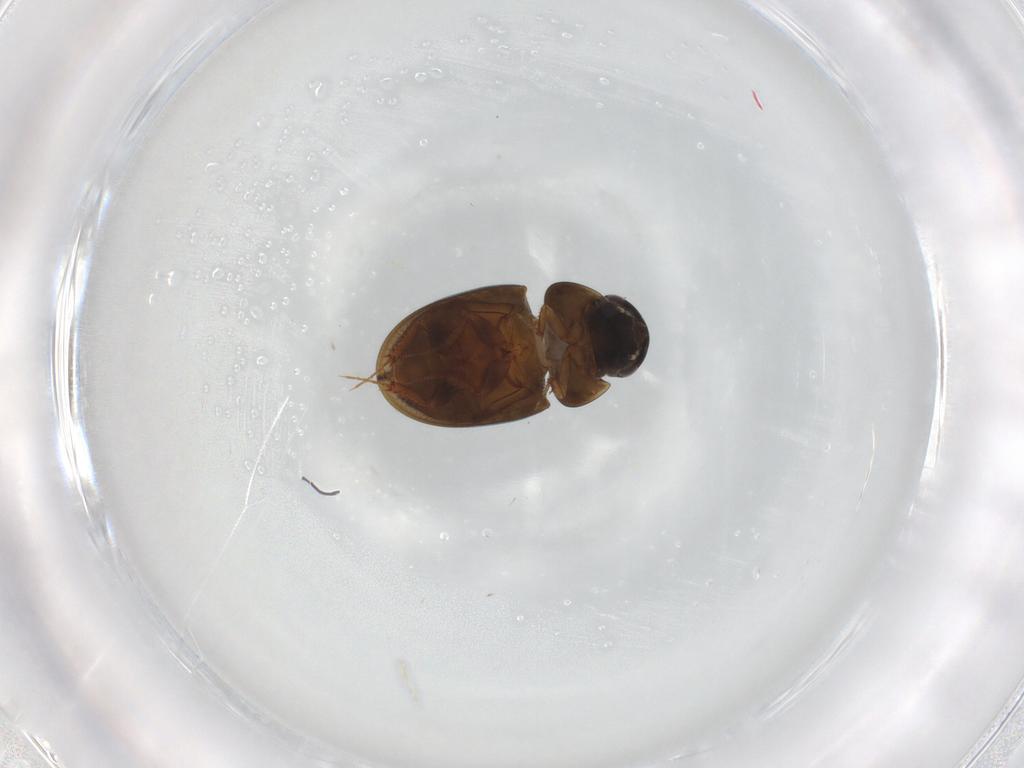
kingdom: Animalia
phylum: Arthropoda
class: Insecta
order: Coleoptera
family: Hydrophilidae
